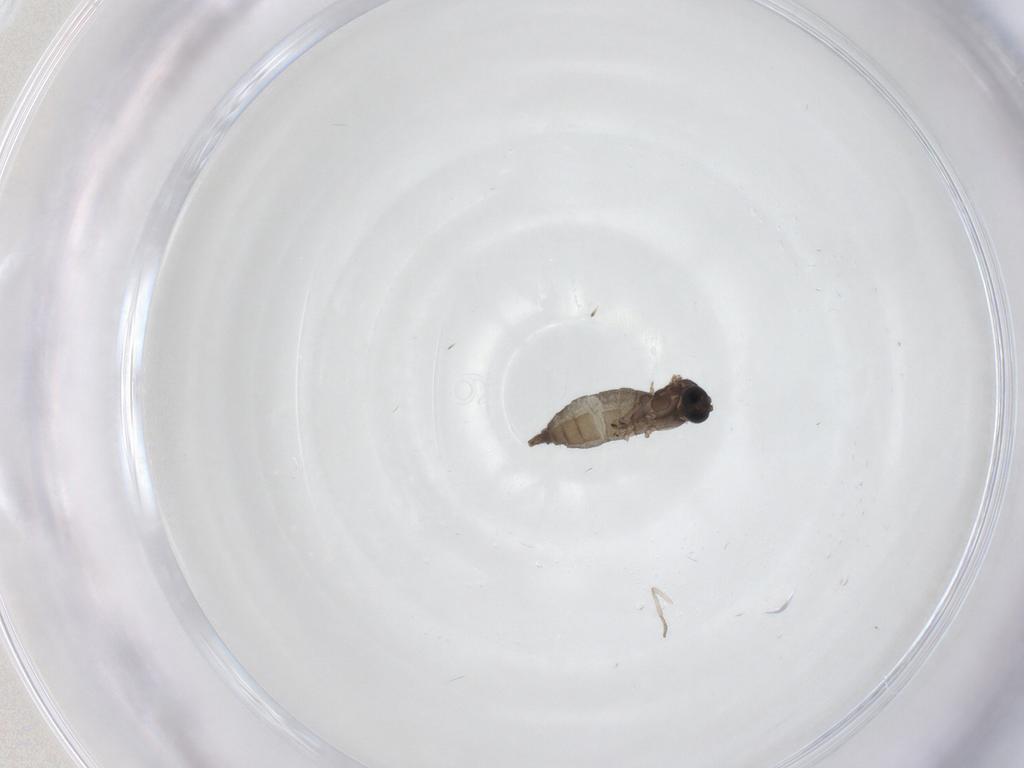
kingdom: Animalia
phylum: Arthropoda
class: Insecta
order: Diptera
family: Sciaridae
